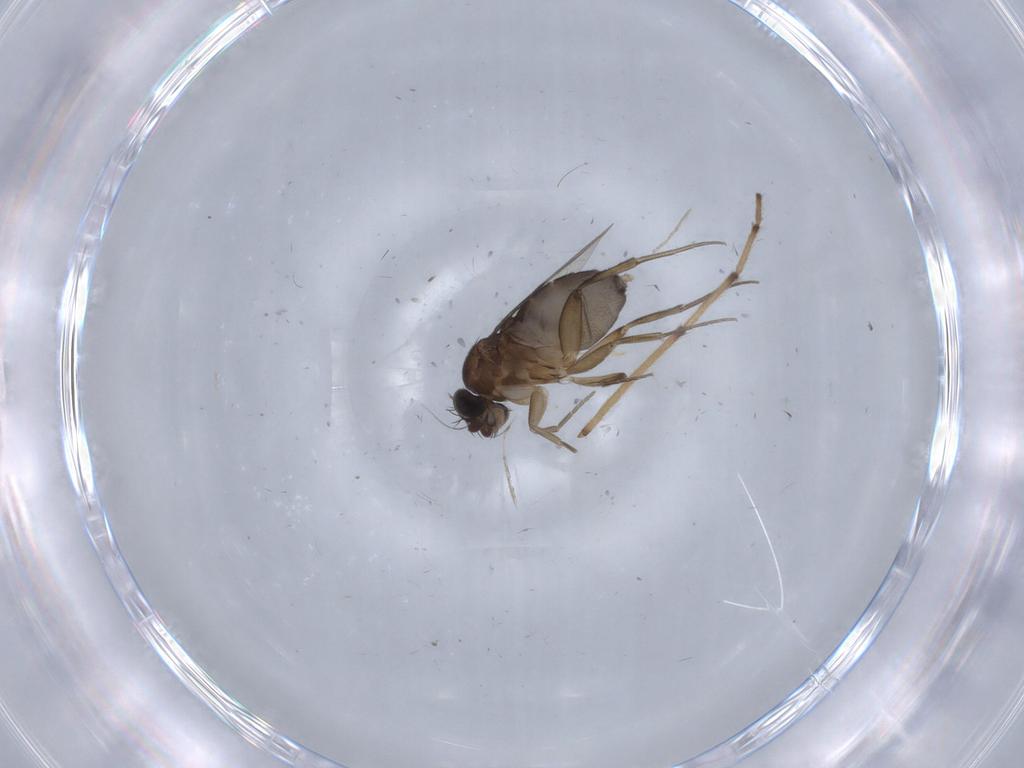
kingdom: Animalia
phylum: Arthropoda
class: Insecta
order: Diptera
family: Phoridae
